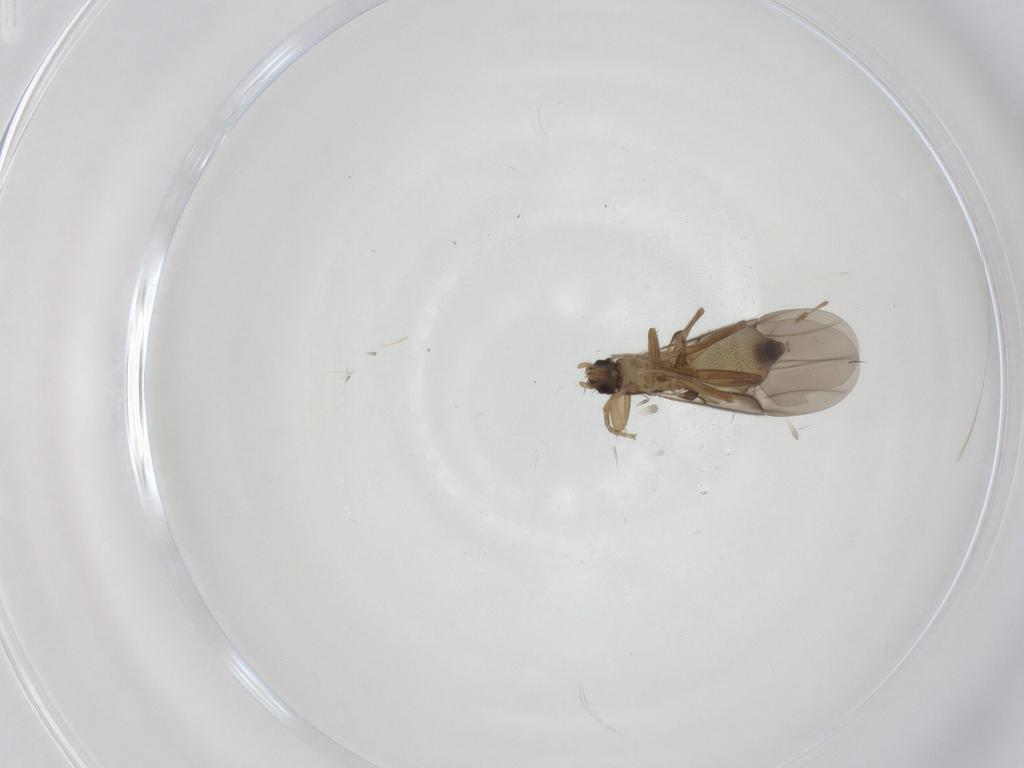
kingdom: Animalia
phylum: Arthropoda
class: Insecta
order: Diptera
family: Phoridae
